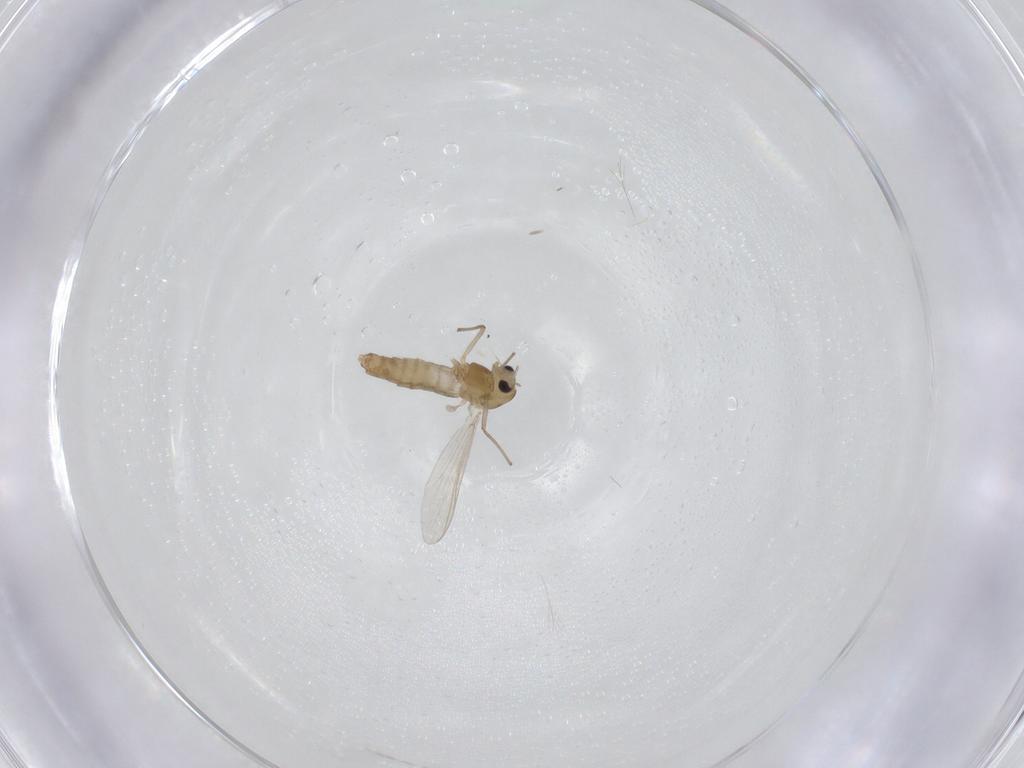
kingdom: Animalia
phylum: Arthropoda
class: Insecta
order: Diptera
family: Chironomidae
